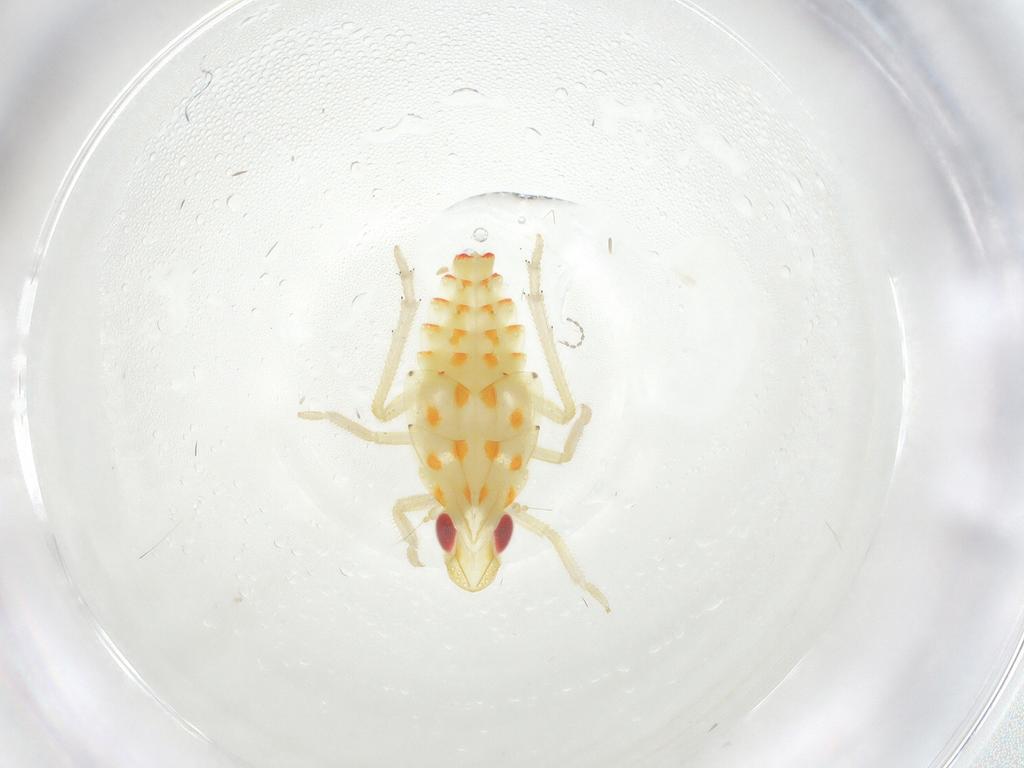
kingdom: Animalia
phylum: Arthropoda
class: Insecta
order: Hemiptera
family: Tropiduchidae
